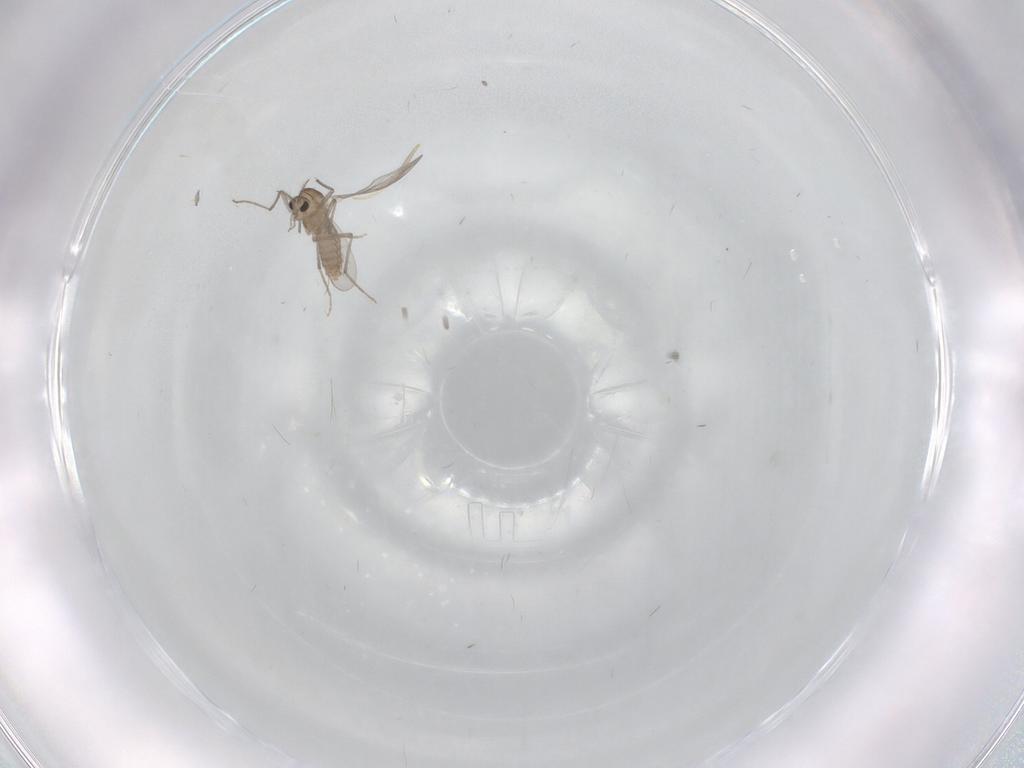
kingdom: Animalia
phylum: Arthropoda
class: Insecta
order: Diptera
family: Chironomidae
